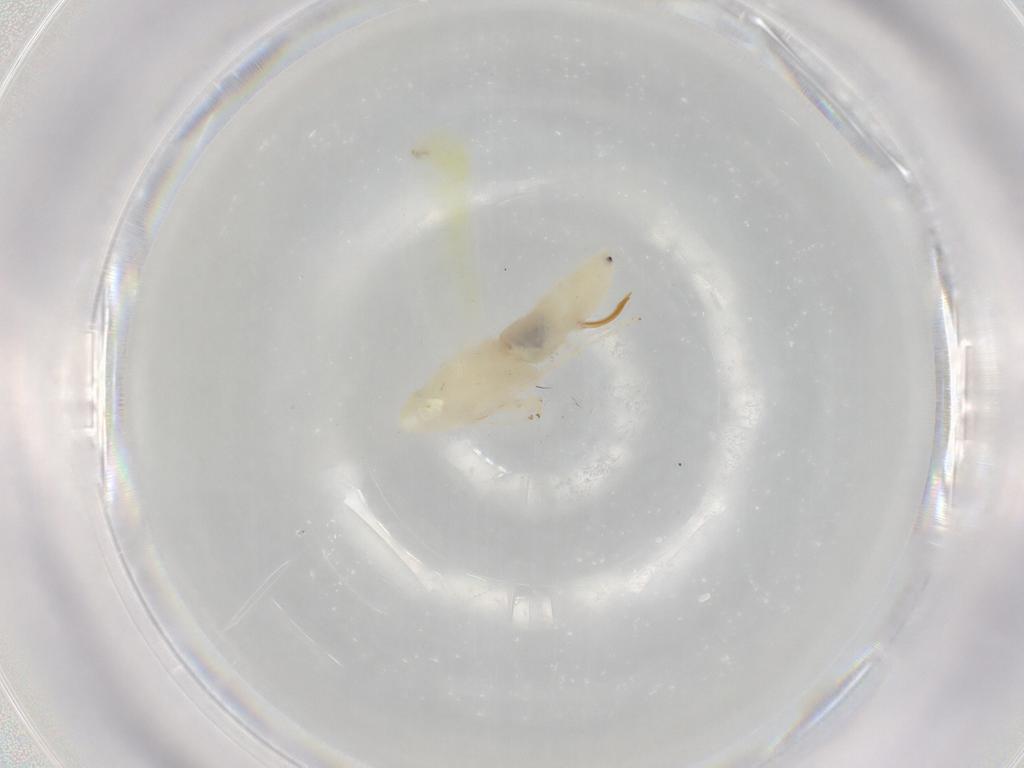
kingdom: Animalia
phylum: Arthropoda
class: Insecta
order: Hemiptera
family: Cicadellidae
